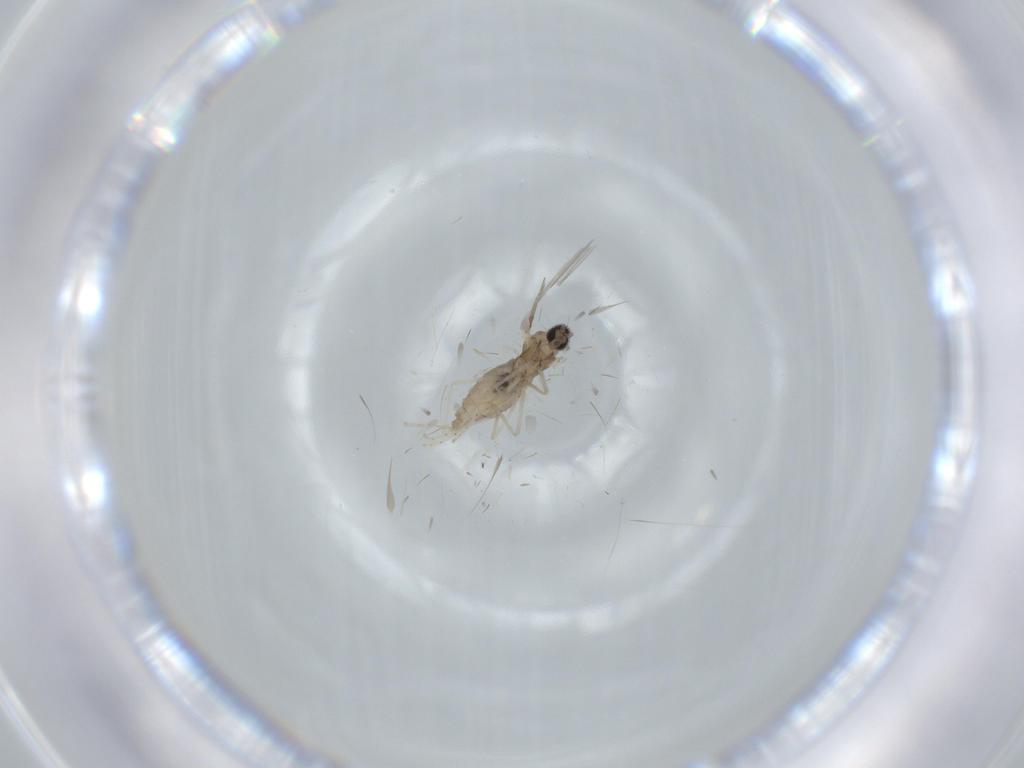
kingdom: Animalia
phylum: Arthropoda
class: Insecta
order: Diptera
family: Cecidomyiidae
